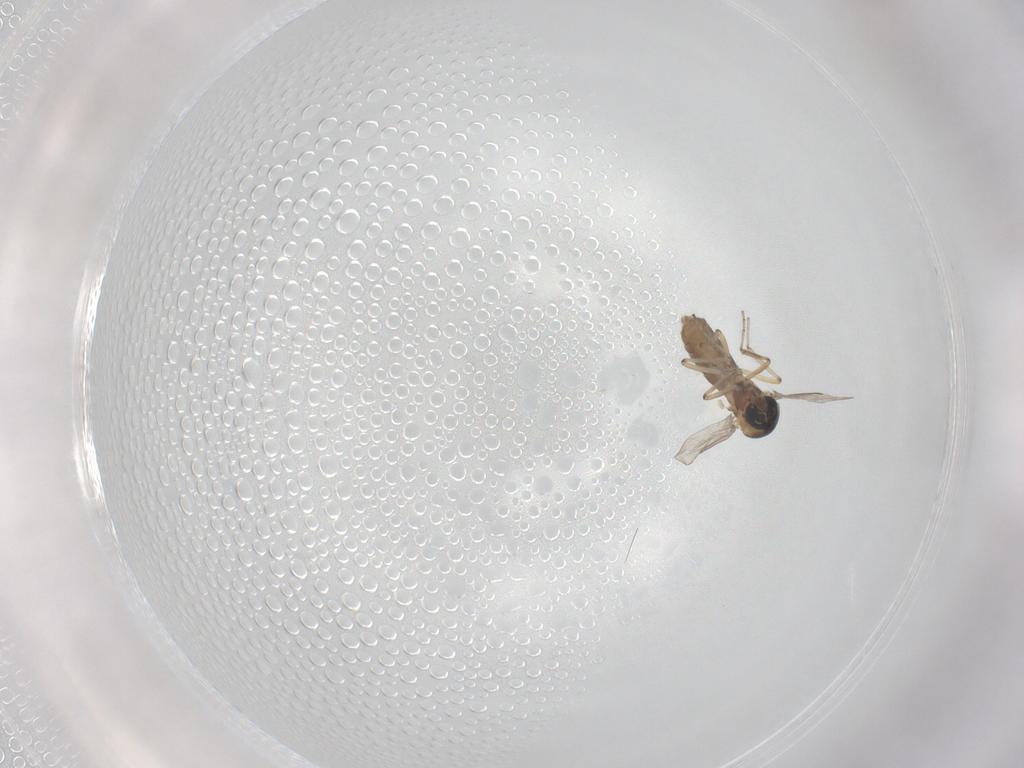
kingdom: Animalia
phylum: Arthropoda
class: Insecta
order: Diptera
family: Ceratopogonidae
